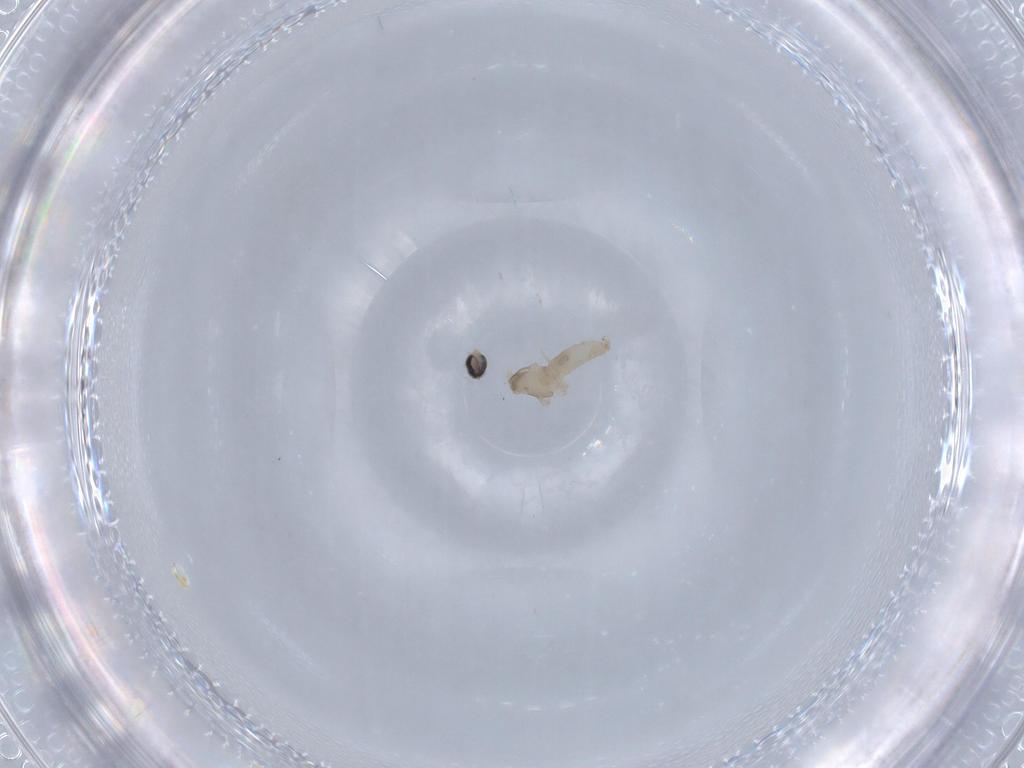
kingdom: Animalia
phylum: Arthropoda
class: Insecta
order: Diptera
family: Cecidomyiidae
